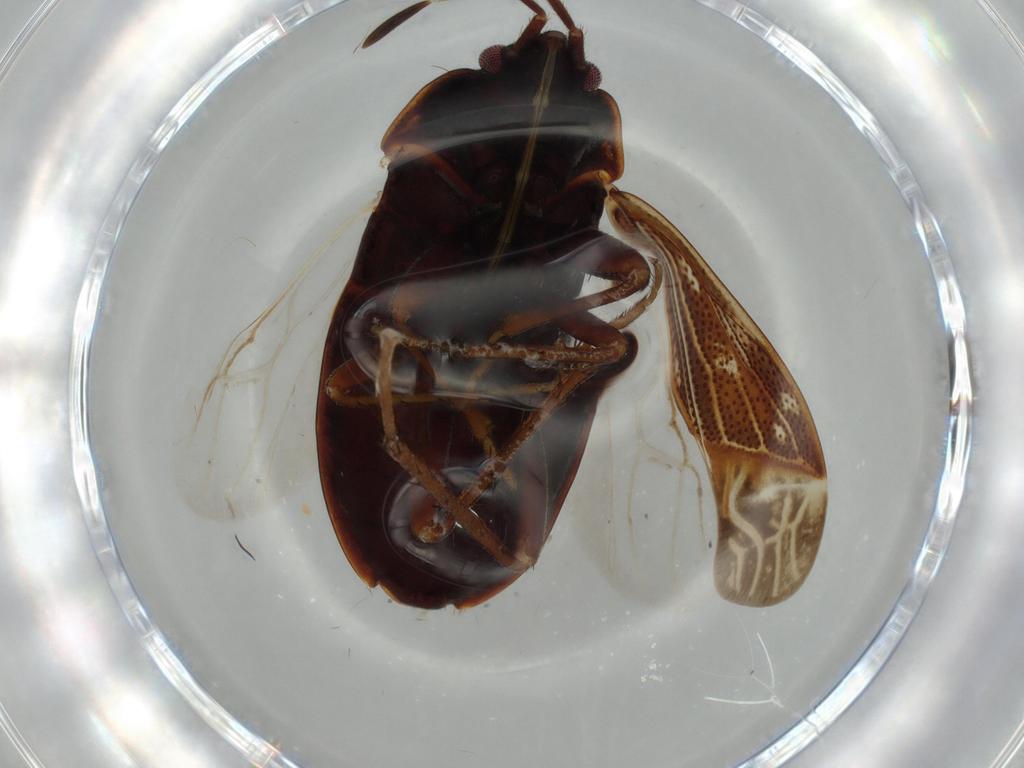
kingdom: Animalia
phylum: Arthropoda
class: Insecta
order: Hemiptera
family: Rhyparochromidae
